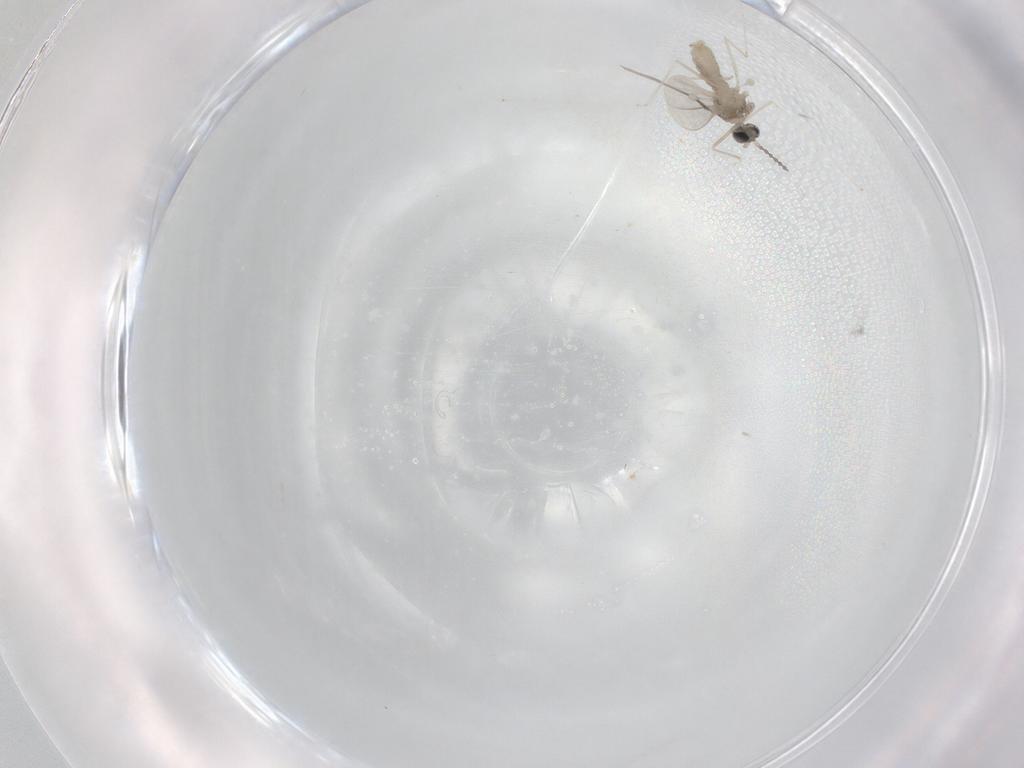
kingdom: Animalia
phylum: Arthropoda
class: Insecta
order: Diptera
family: Cecidomyiidae
